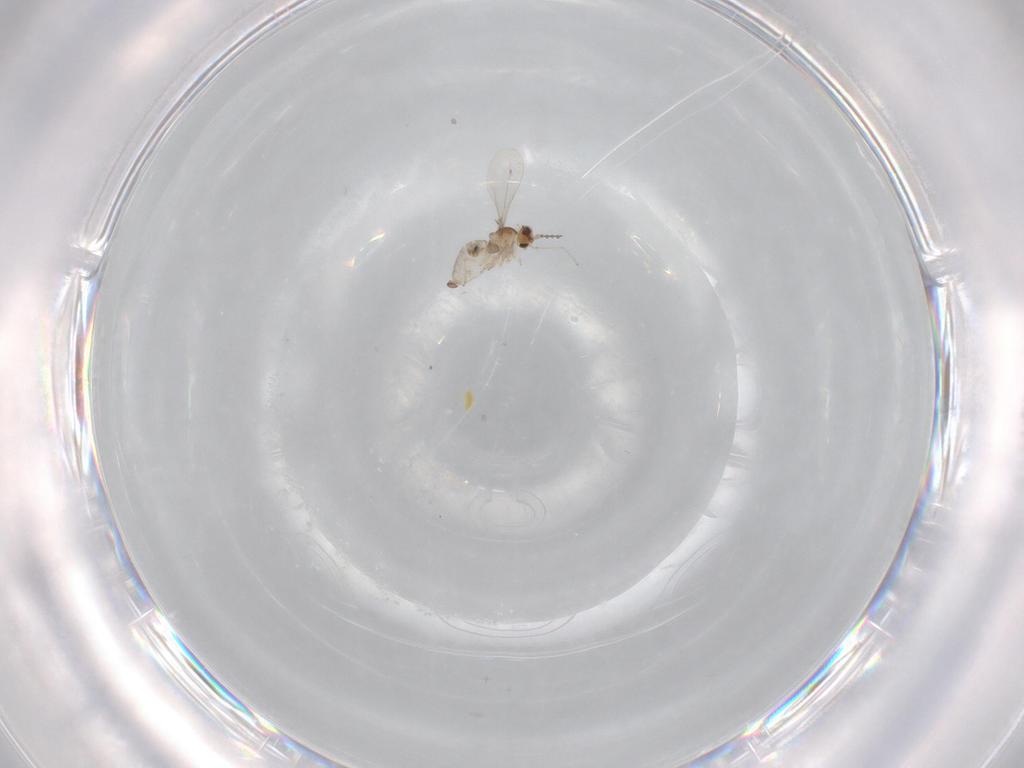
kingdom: Animalia
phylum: Arthropoda
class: Insecta
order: Diptera
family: Cecidomyiidae
